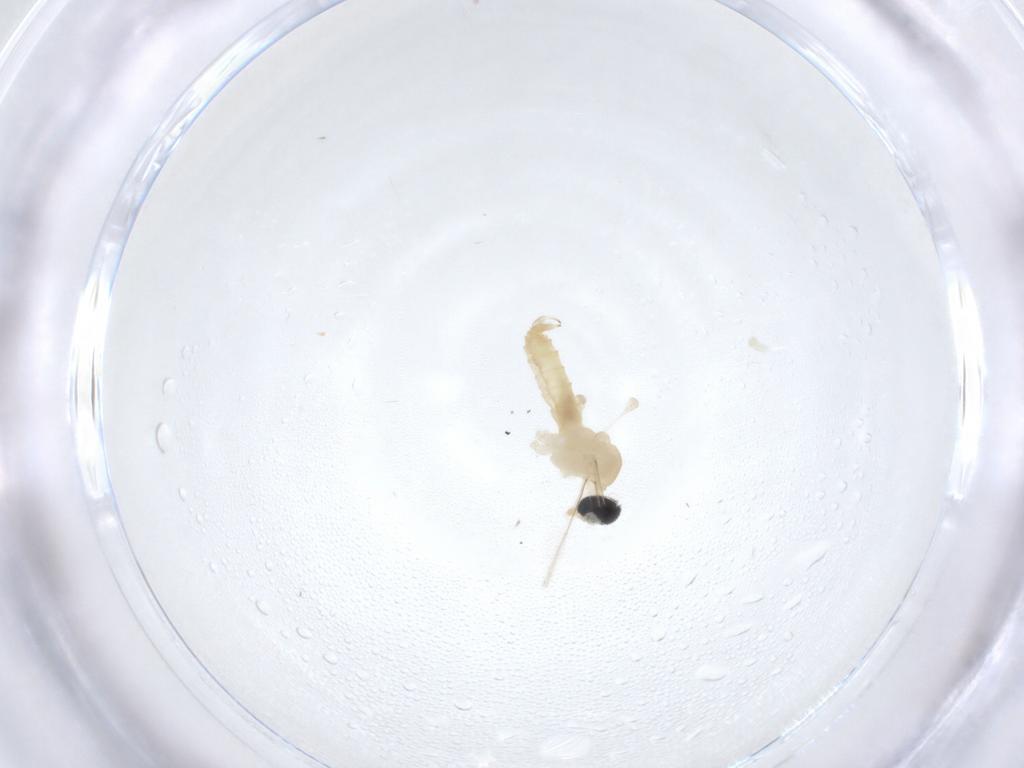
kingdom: Animalia
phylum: Arthropoda
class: Insecta
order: Diptera
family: Cecidomyiidae
